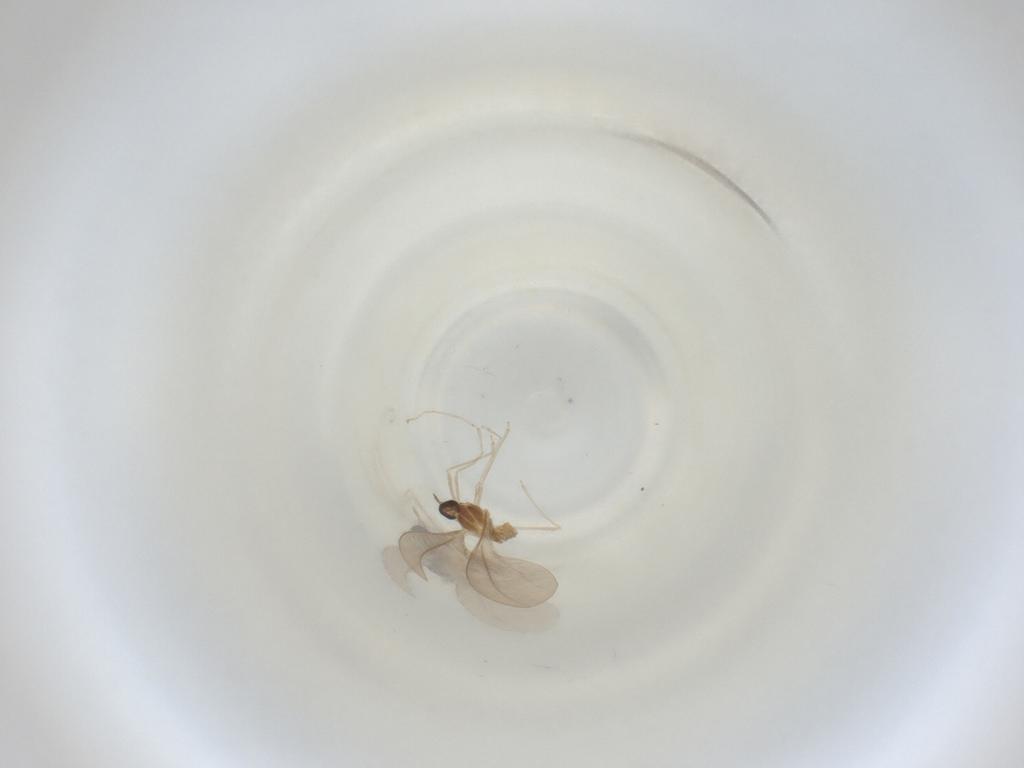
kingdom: Animalia
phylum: Arthropoda
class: Insecta
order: Diptera
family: Cecidomyiidae
